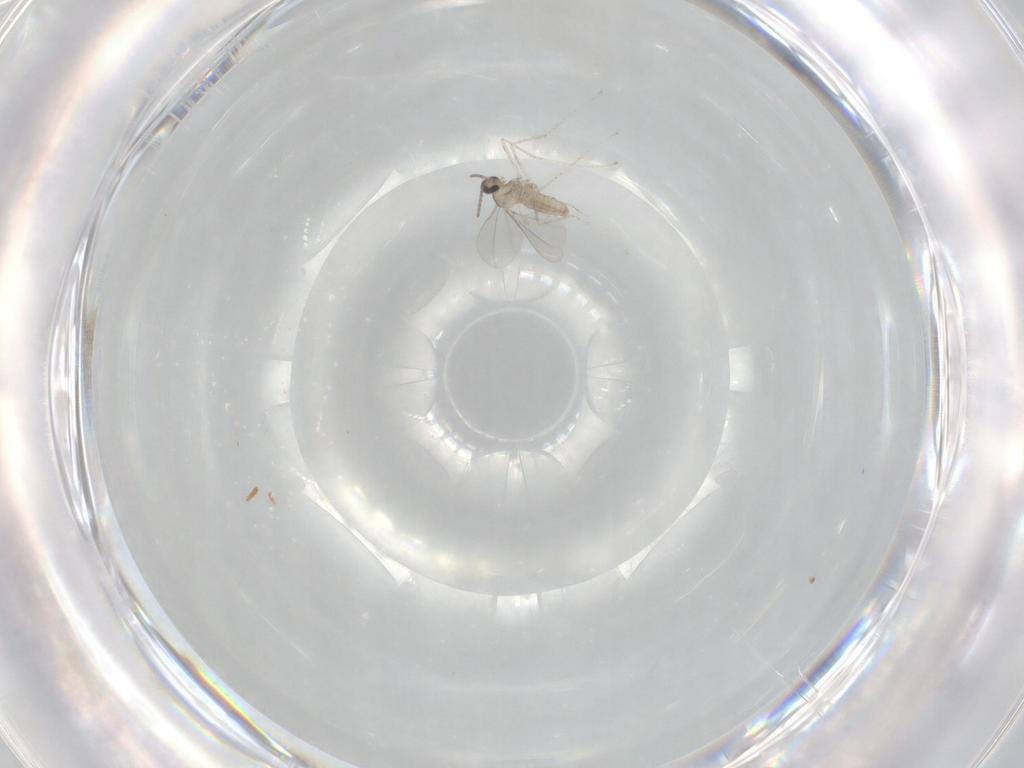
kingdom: Animalia
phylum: Arthropoda
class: Insecta
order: Diptera
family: Cecidomyiidae
